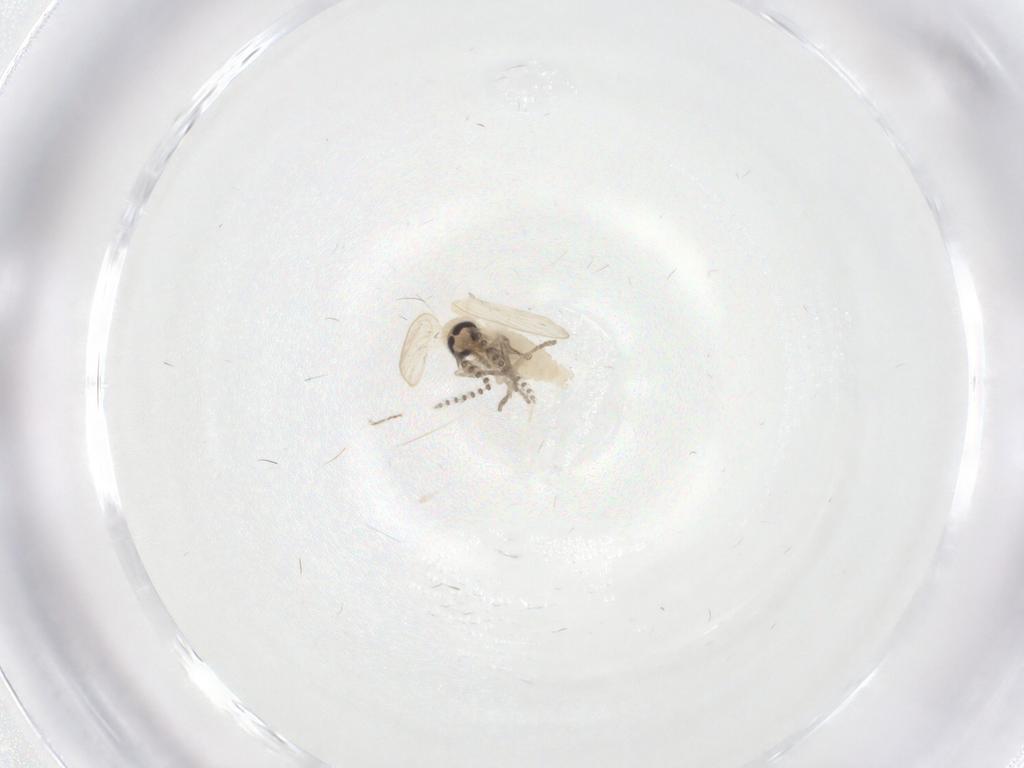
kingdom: Animalia
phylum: Arthropoda
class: Insecta
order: Diptera
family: Psychodidae
